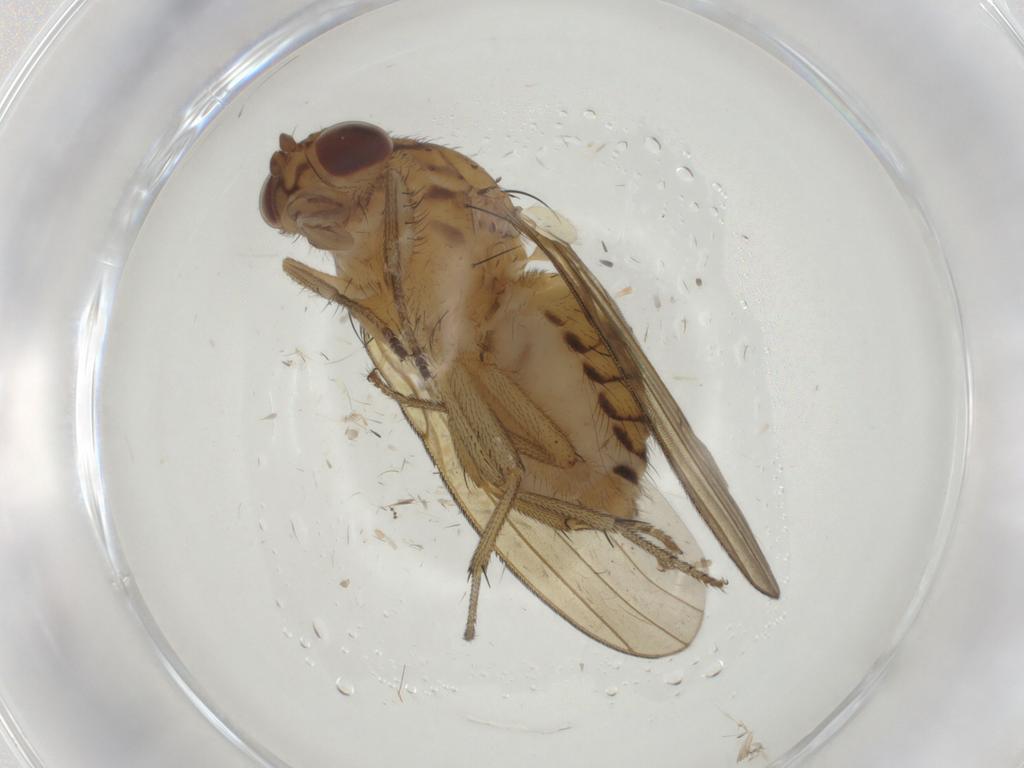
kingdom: Animalia
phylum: Arthropoda
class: Insecta
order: Diptera
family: Sciaridae
